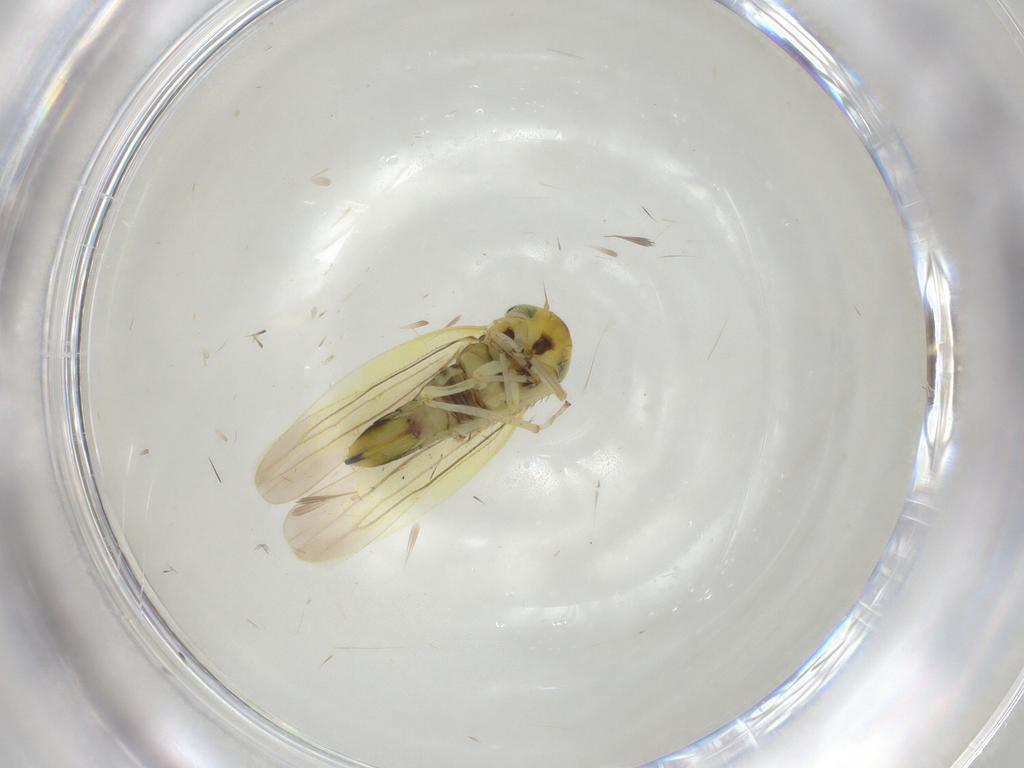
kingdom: Animalia
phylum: Arthropoda
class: Insecta
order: Hemiptera
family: Cicadellidae
